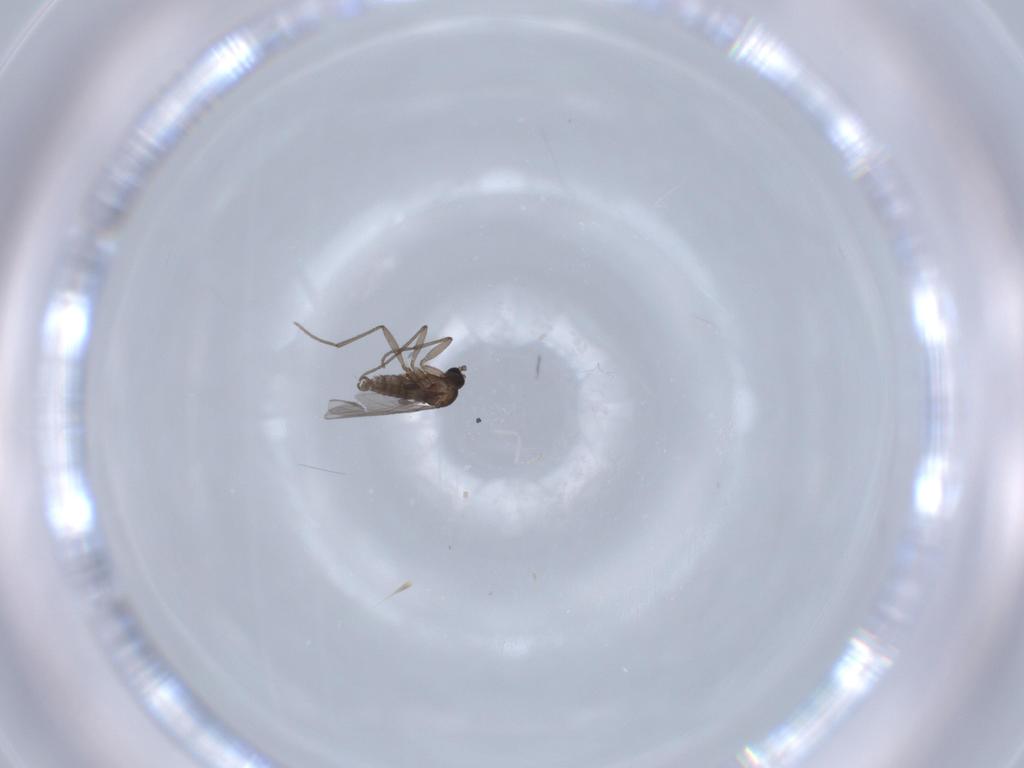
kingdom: Animalia
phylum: Arthropoda
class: Insecta
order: Diptera
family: Sciaridae
